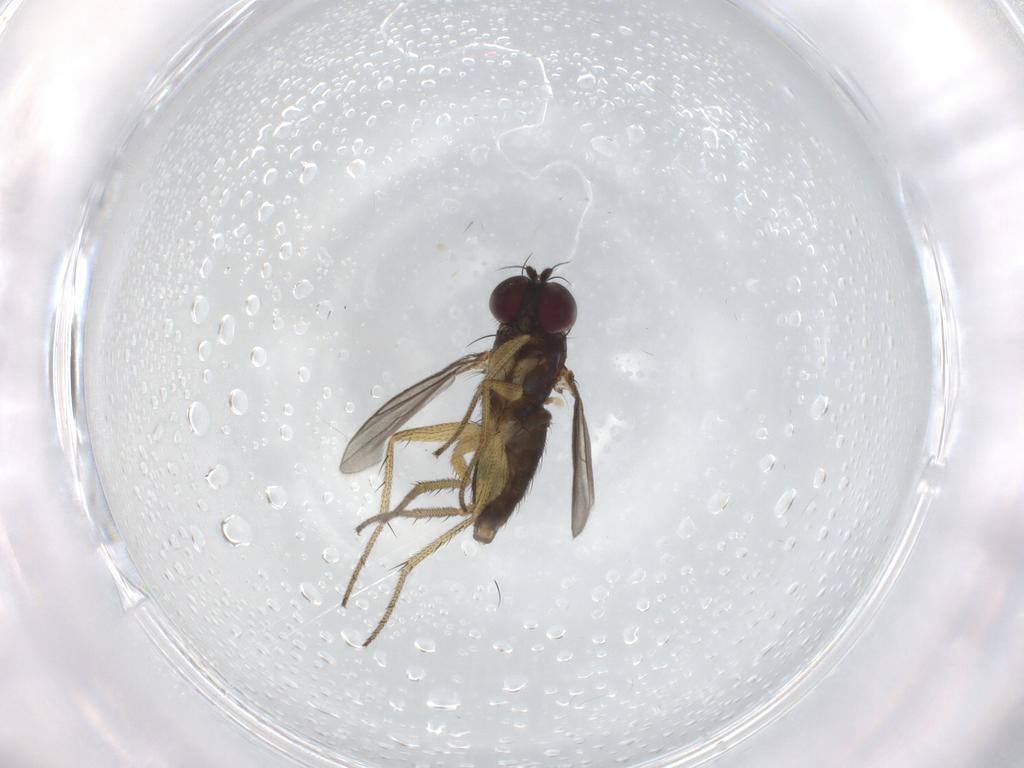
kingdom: Animalia
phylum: Arthropoda
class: Insecta
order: Diptera
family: Dolichopodidae
